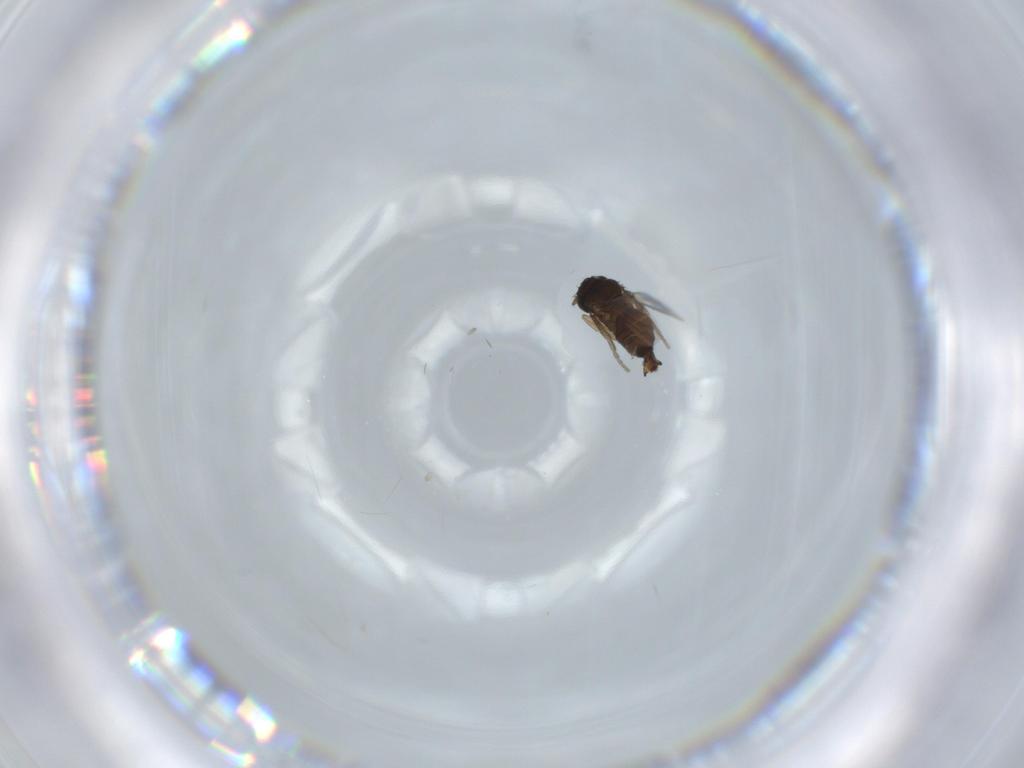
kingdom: Animalia
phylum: Arthropoda
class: Insecta
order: Diptera
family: Phoridae
